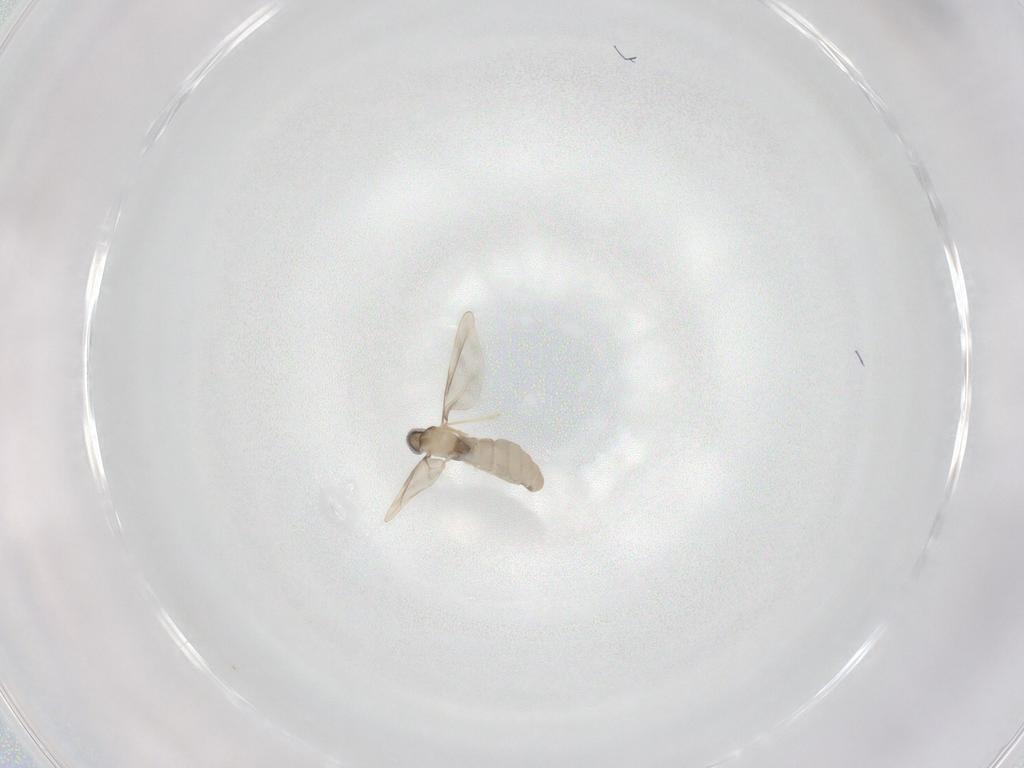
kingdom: Animalia
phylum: Arthropoda
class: Insecta
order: Diptera
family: Cecidomyiidae
